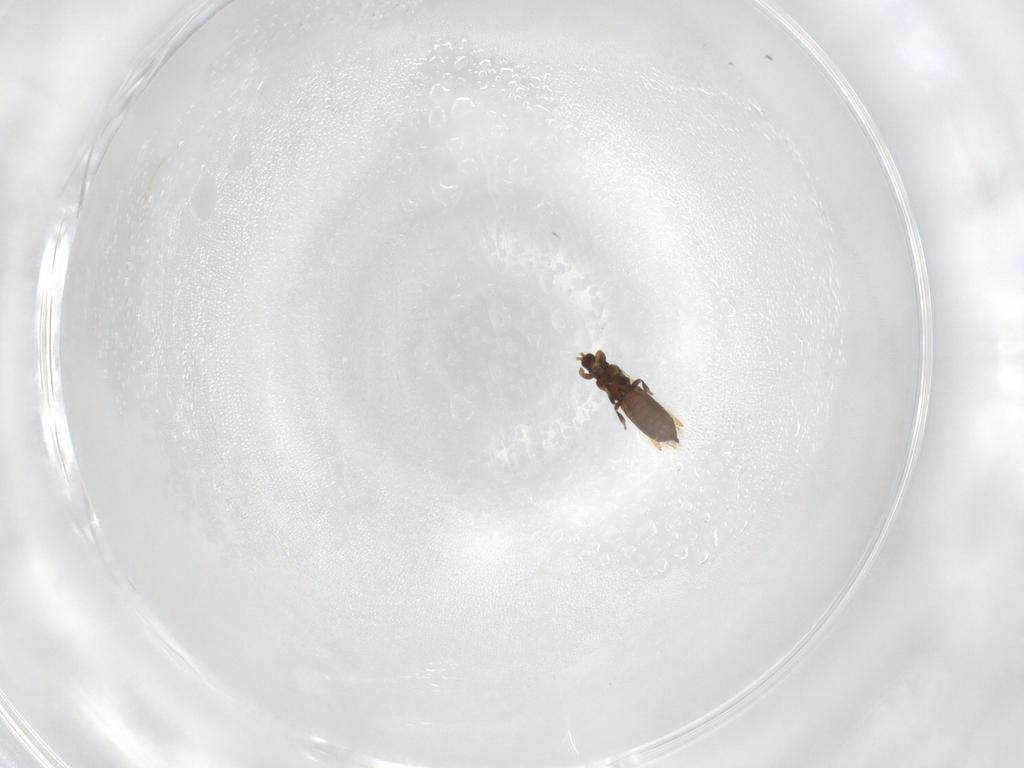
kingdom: Animalia
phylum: Arthropoda
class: Insecta
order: Thysanoptera
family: Thripidae
